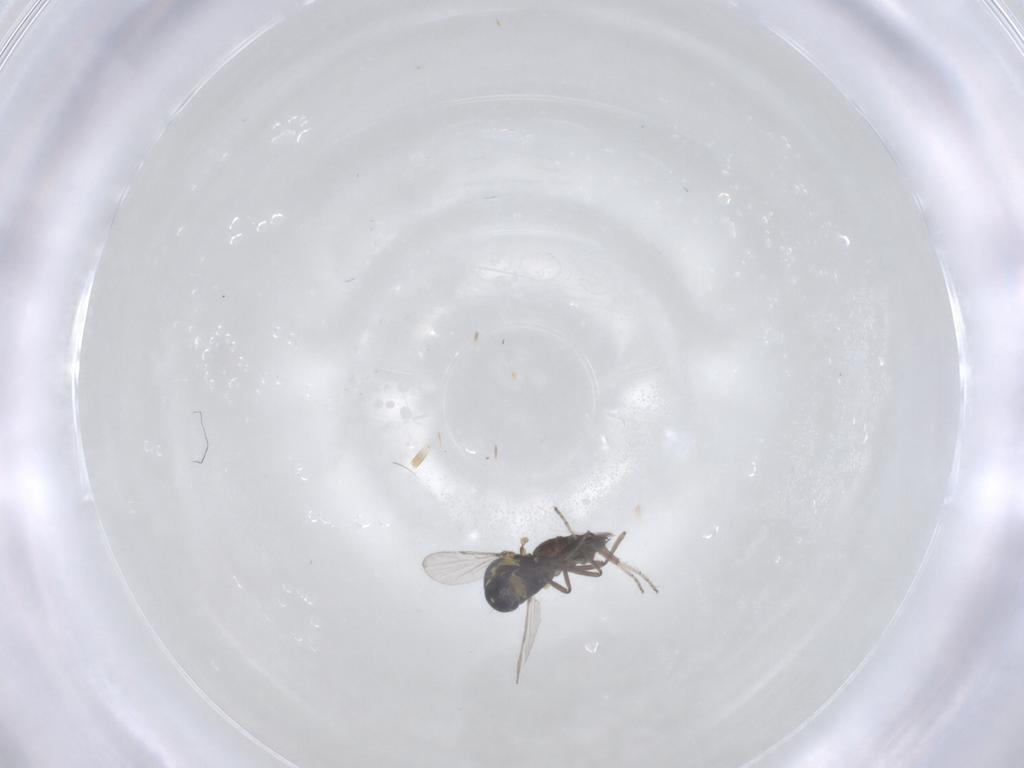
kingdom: Animalia
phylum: Arthropoda
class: Insecta
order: Diptera
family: Ceratopogonidae
